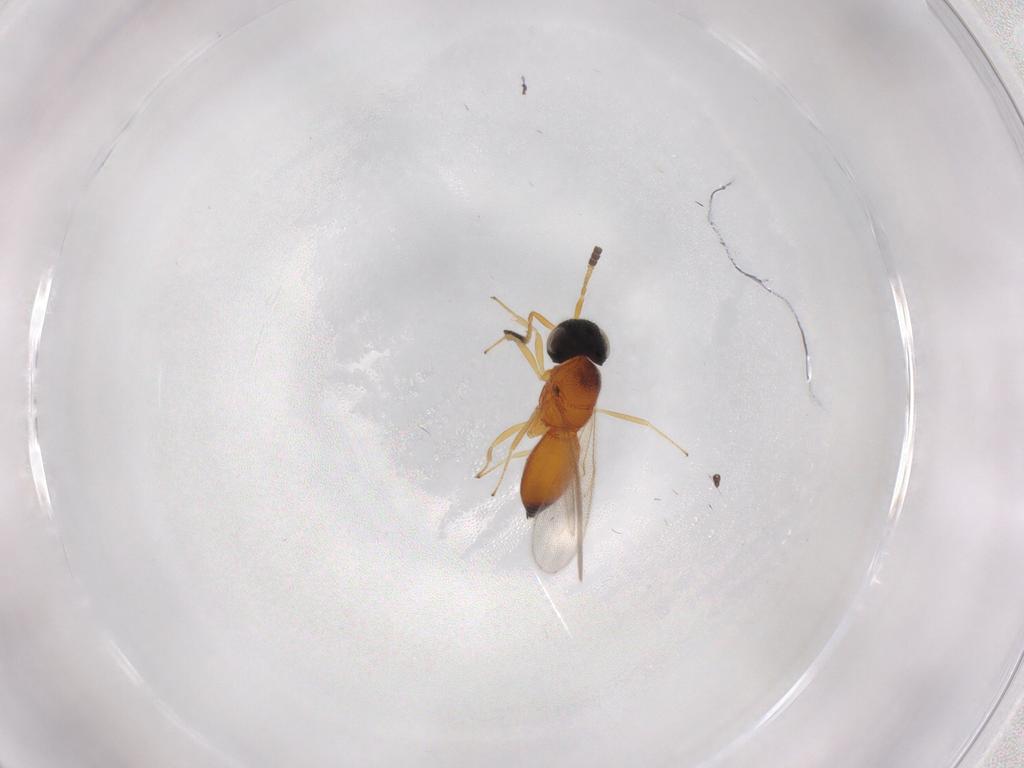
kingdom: Animalia
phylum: Arthropoda
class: Insecta
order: Hymenoptera
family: Scelionidae
